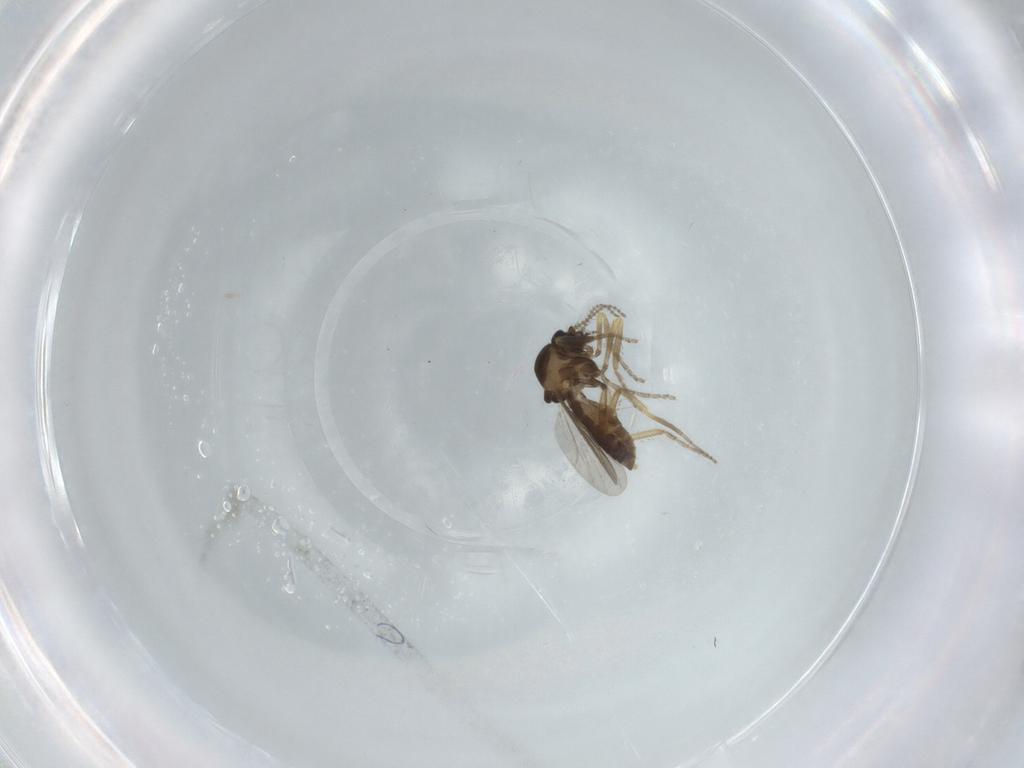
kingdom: Animalia
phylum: Arthropoda
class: Insecta
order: Diptera
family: Ceratopogonidae
